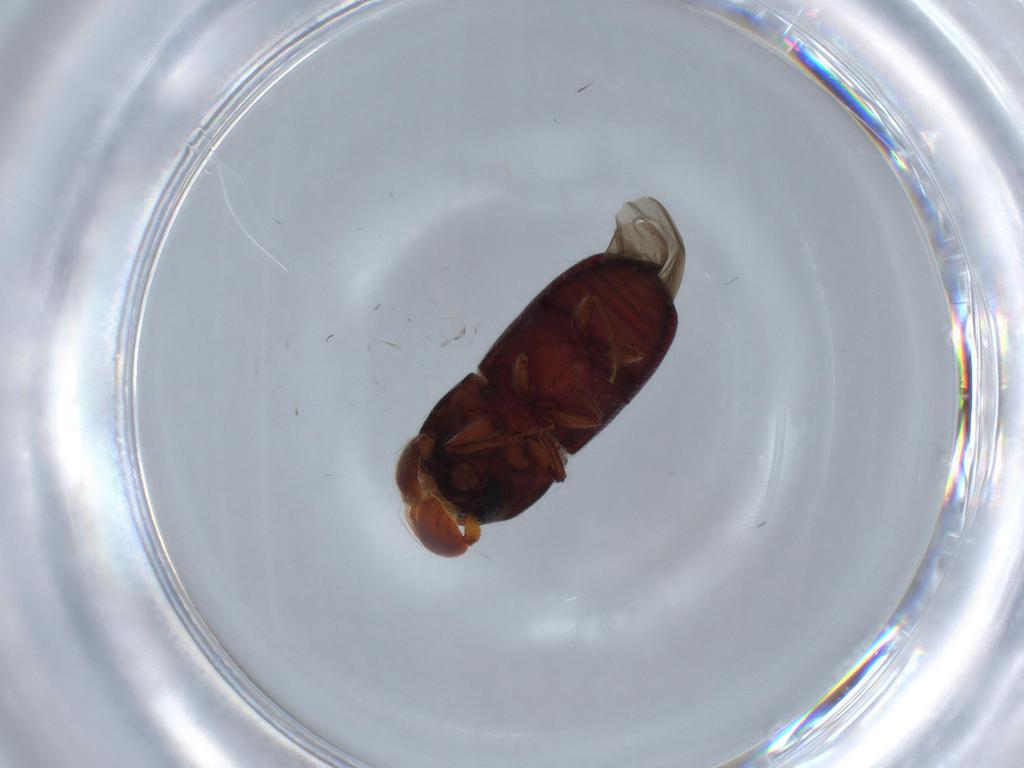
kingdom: Animalia
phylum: Arthropoda
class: Insecta
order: Coleoptera
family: Curculionidae
